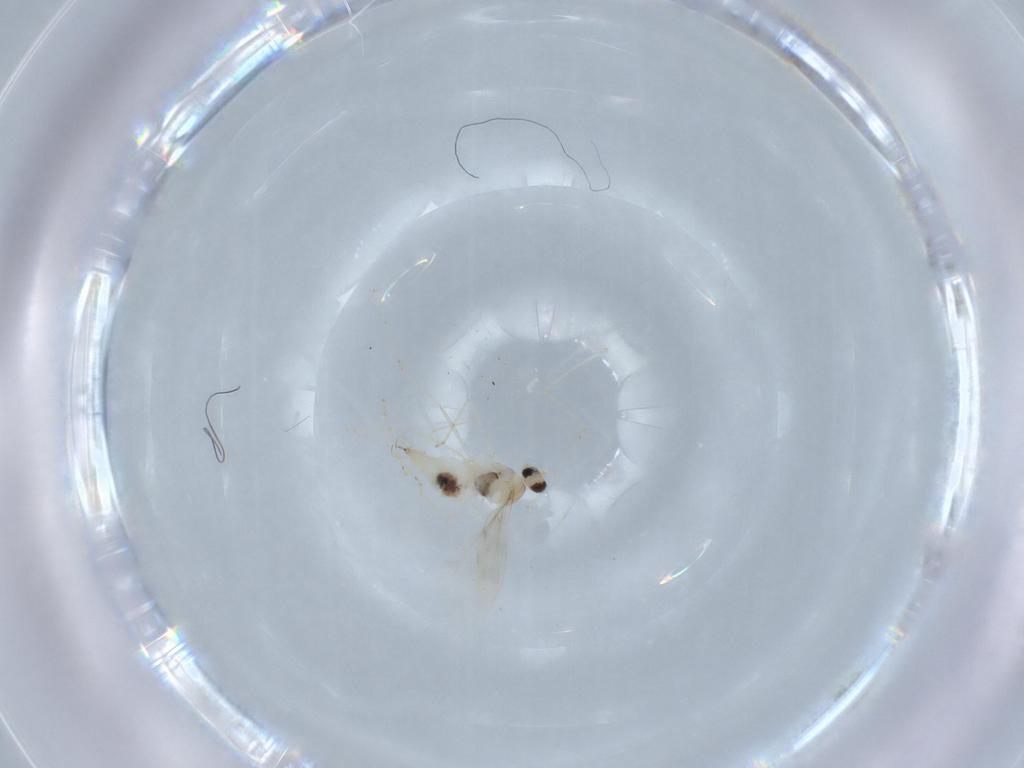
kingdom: Animalia
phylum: Arthropoda
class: Insecta
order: Diptera
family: Cecidomyiidae
